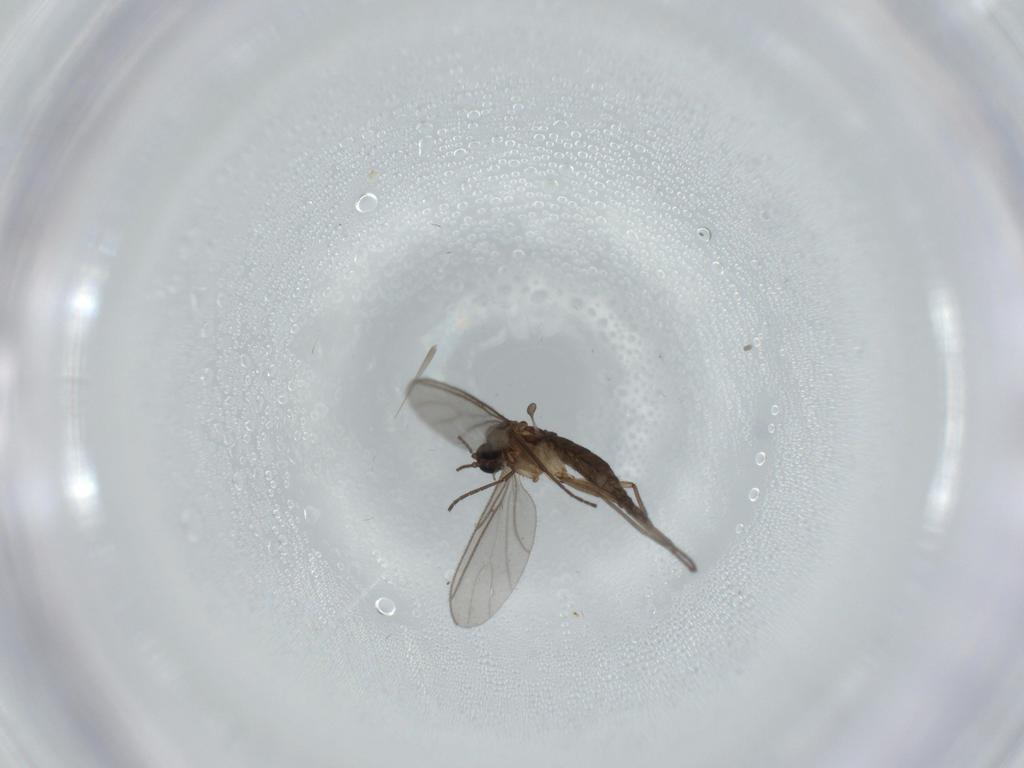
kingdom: Animalia
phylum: Arthropoda
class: Insecta
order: Diptera
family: Sciaridae
